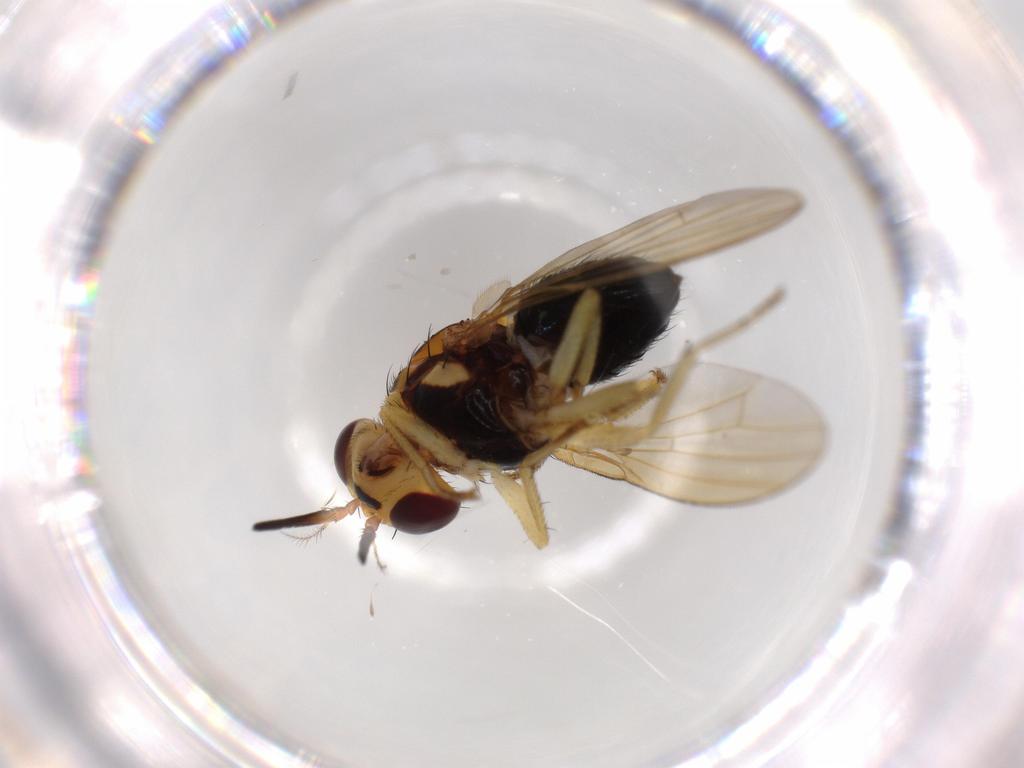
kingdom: Animalia
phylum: Arthropoda
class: Insecta
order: Diptera
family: Lauxaniidae
